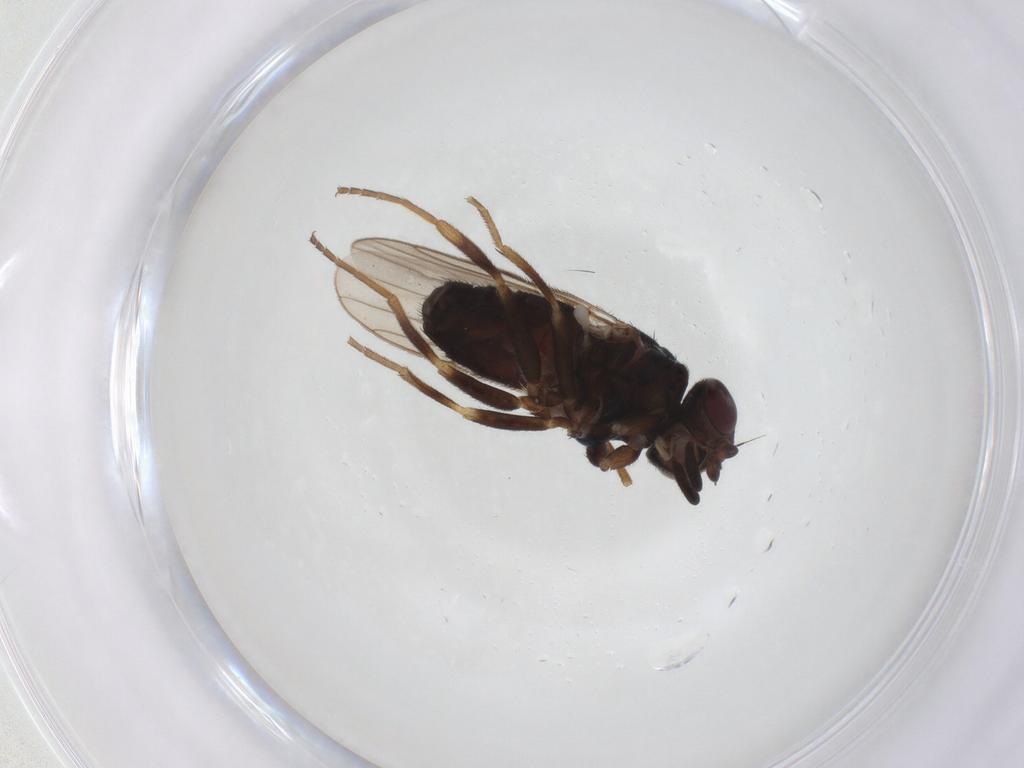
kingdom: Animalia
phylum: Arthropoda
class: Insecta
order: Diptera
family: Chloropidae
